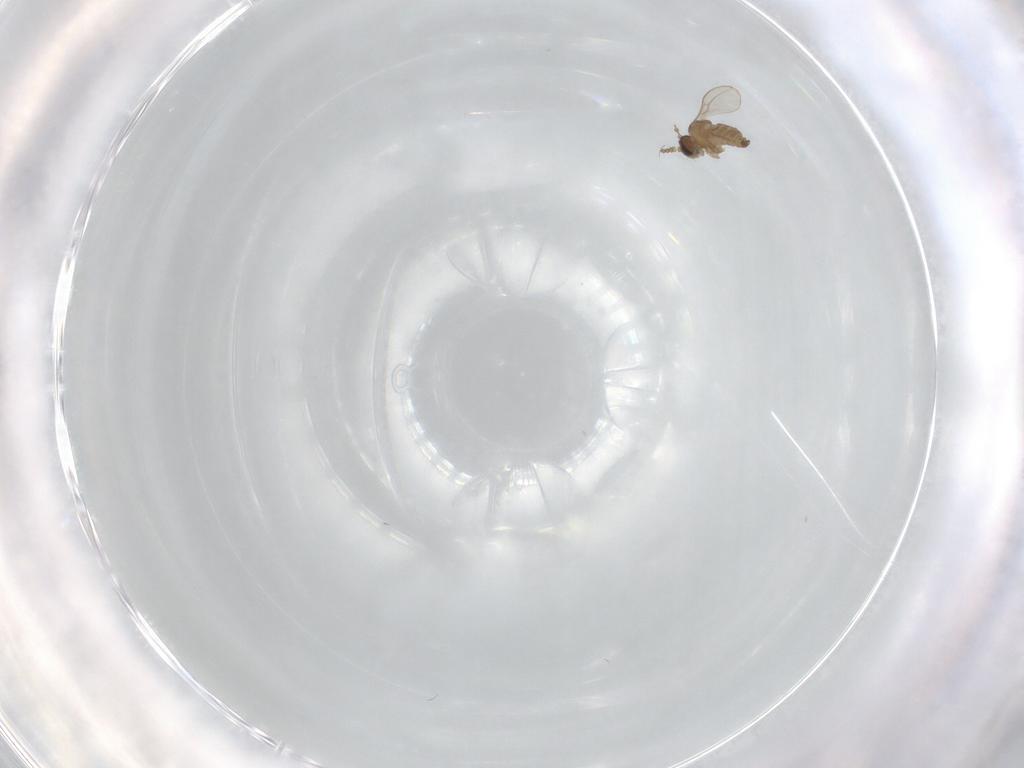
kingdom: Animalia
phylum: Arthropoda
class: Insecta
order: Diptera
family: Cecidomyiidae
